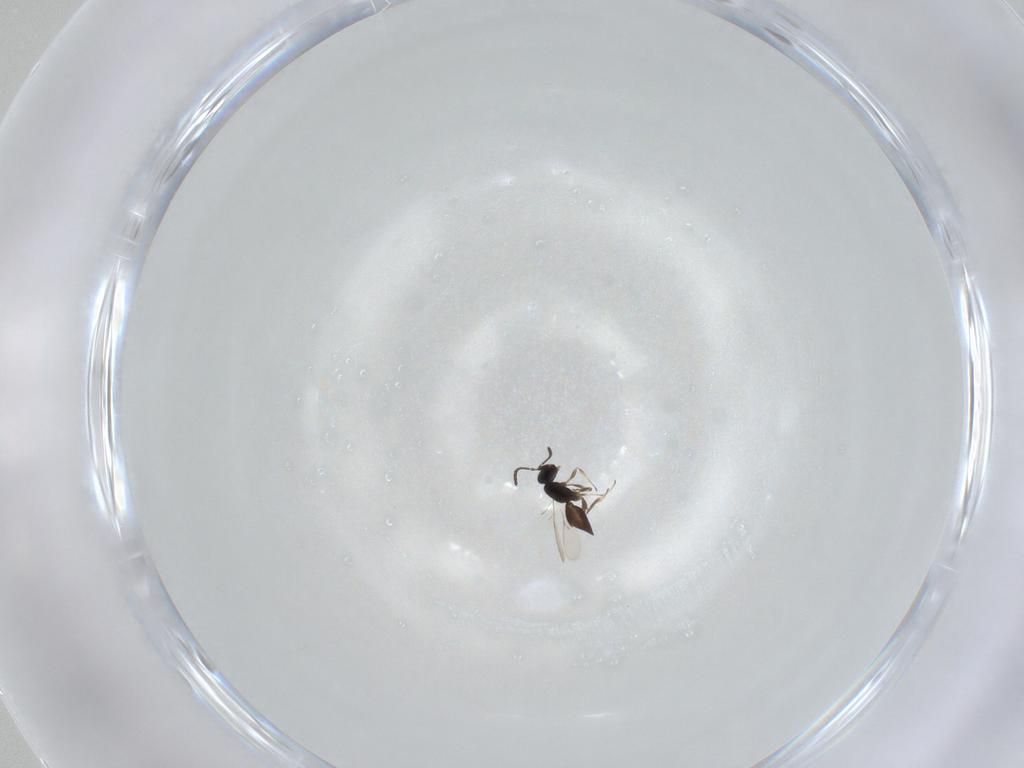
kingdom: Animalia
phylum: Arthropoda
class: Insecta
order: Hymenoptera
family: Scelionidae
